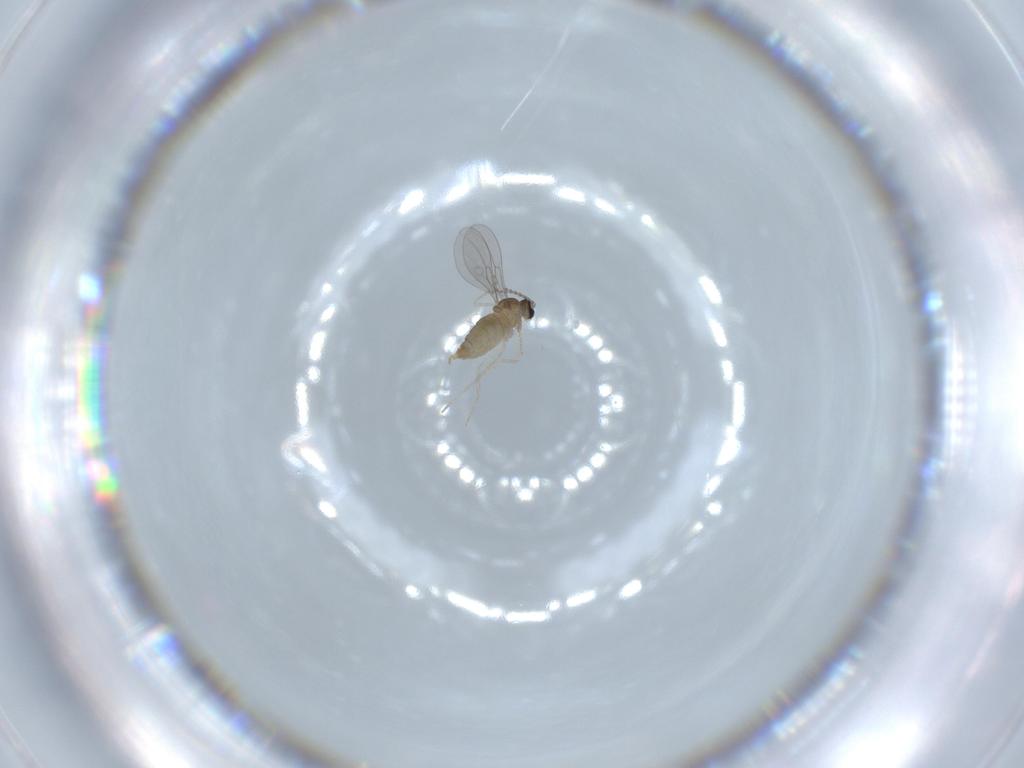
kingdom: Animalia
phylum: Arthropoda
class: Insecta
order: Diptera
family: Cecidomyiidae
